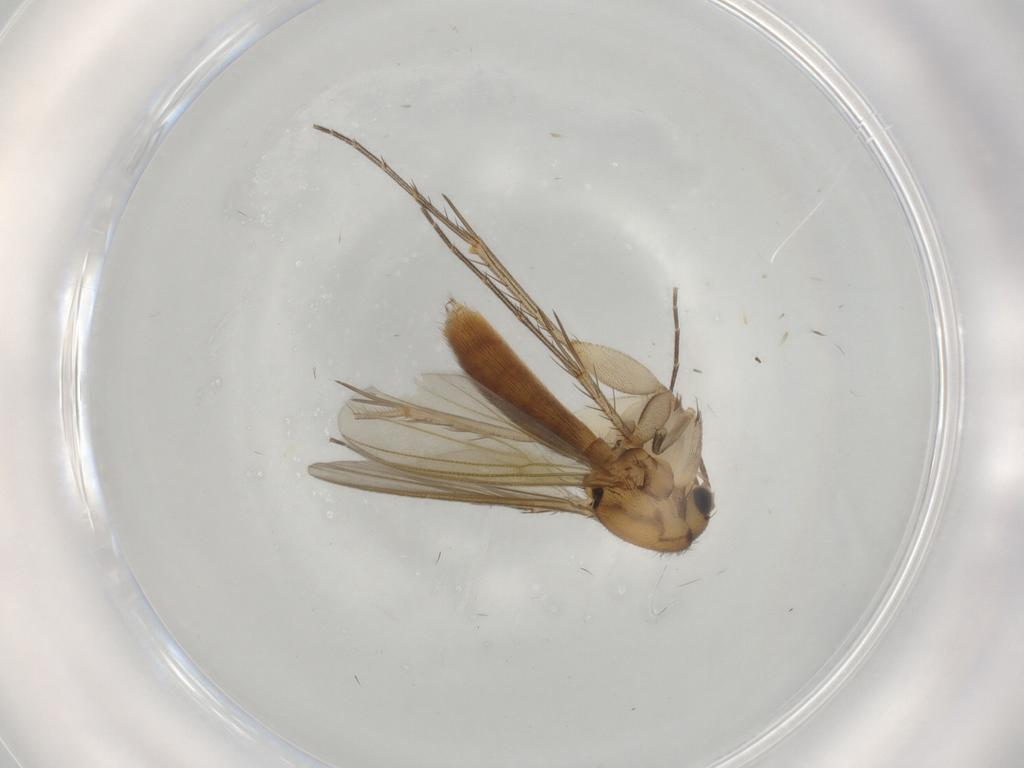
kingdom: Animalia
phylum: Arthropoda
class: Insecta
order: Diptera
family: Mycetophilidae
